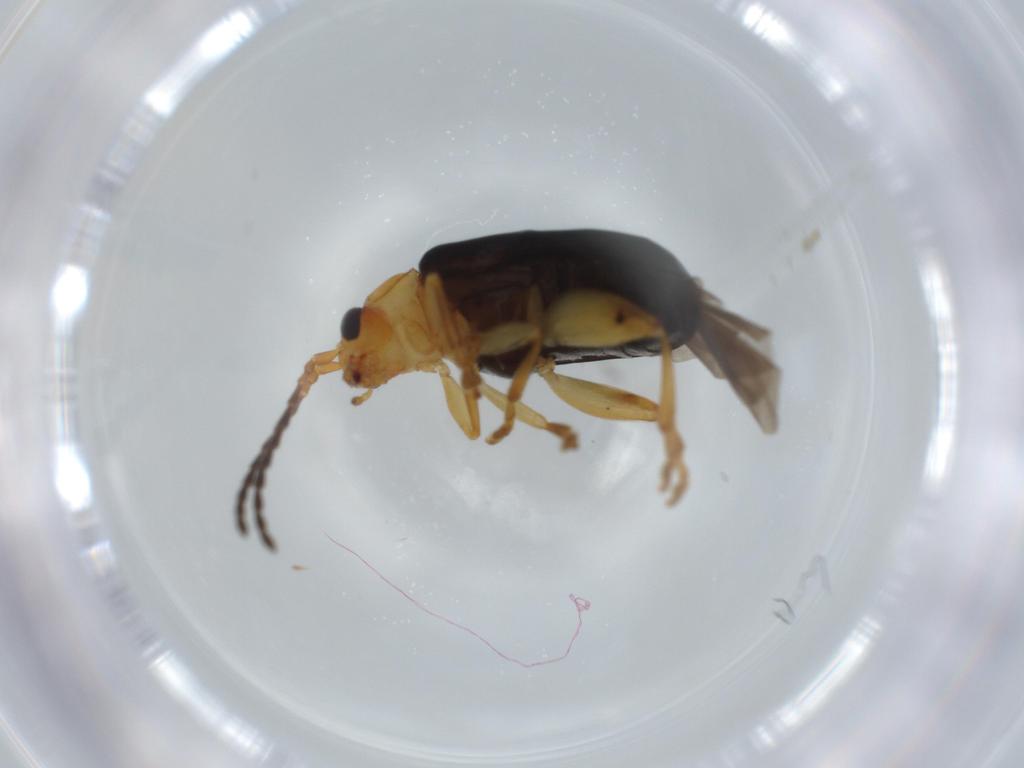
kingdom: Animalia
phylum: Arthropoda
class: Insecta
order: Coleoptera
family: Chrysomelidae
